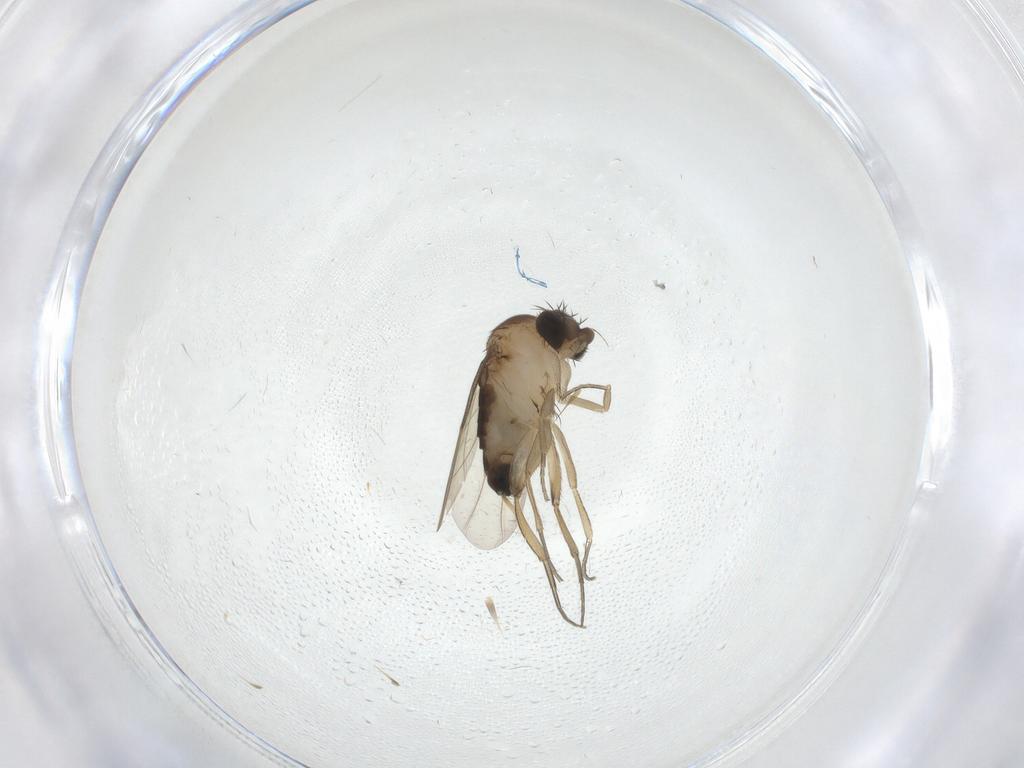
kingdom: Animalia
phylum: Arthropoda
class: Insecta
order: Diptera
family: Phoridae
